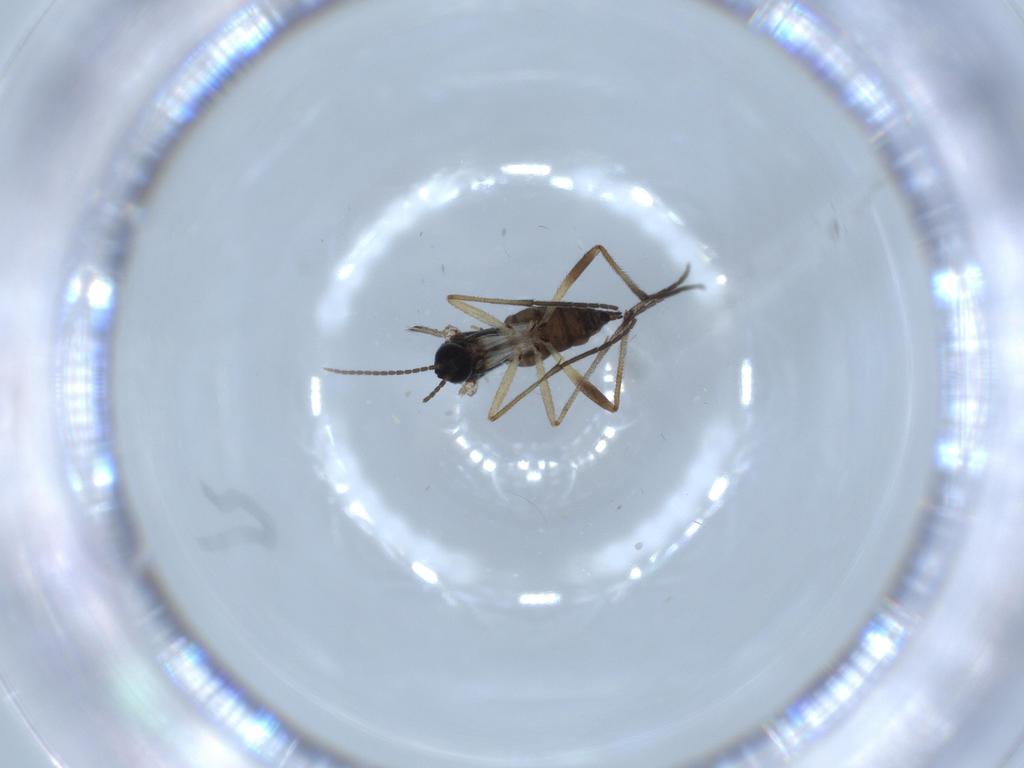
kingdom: Animalia
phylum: Arthropoda
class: Insecta
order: Diptera
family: Sciaridae
